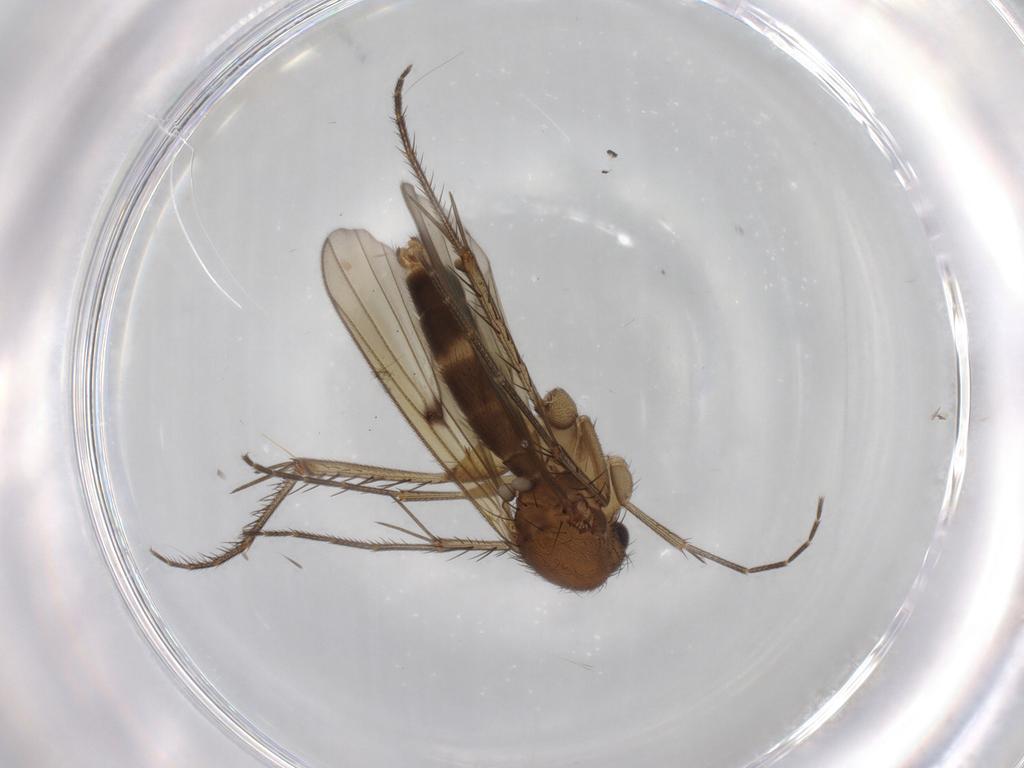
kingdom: Animalia
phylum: Arthropoda
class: Insecta
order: Diptera
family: Mycetophilidae
